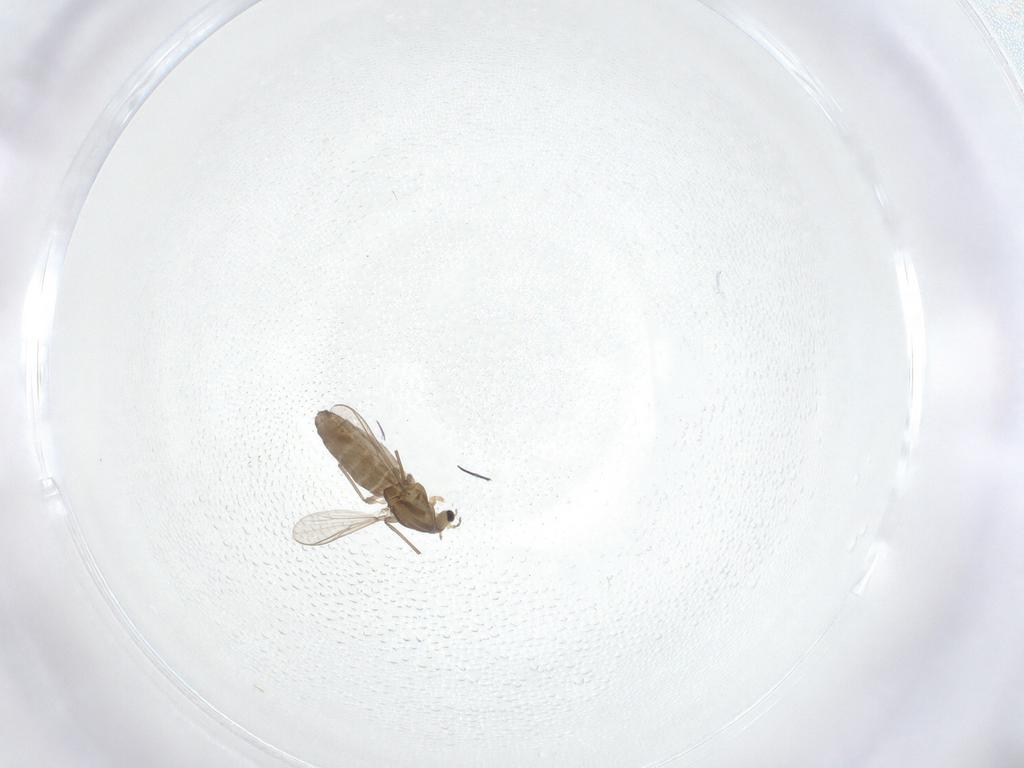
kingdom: Animalia
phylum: Arthropoda
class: Insecta
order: Diptera
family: Chironomidae
